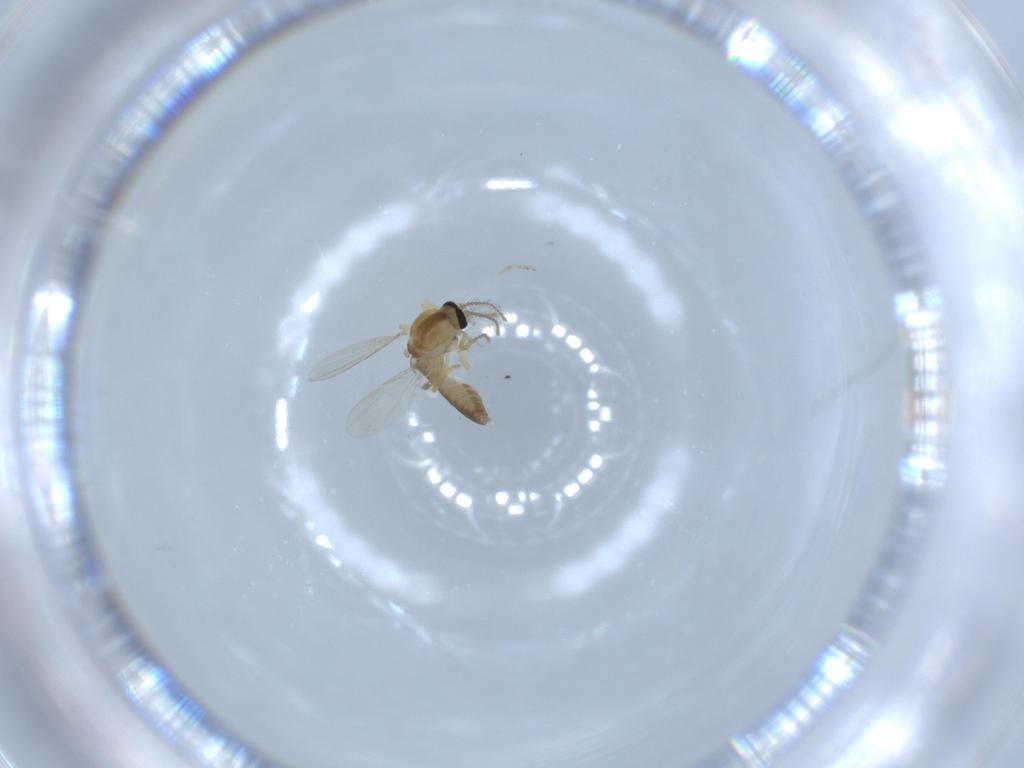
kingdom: Animalia
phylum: Arthropoda
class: Insecta
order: Diptera
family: Ceratopogonidae
